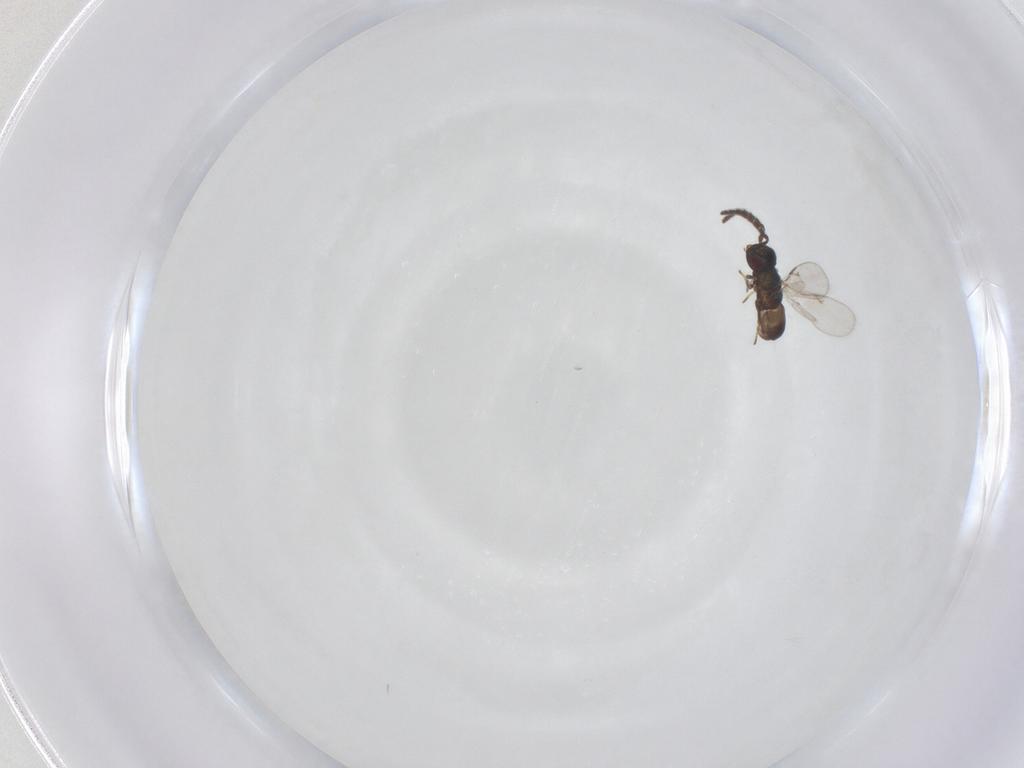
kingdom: Animalia
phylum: Arthropoda
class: Insecta
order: Hymenoptera
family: Encyrtidae
